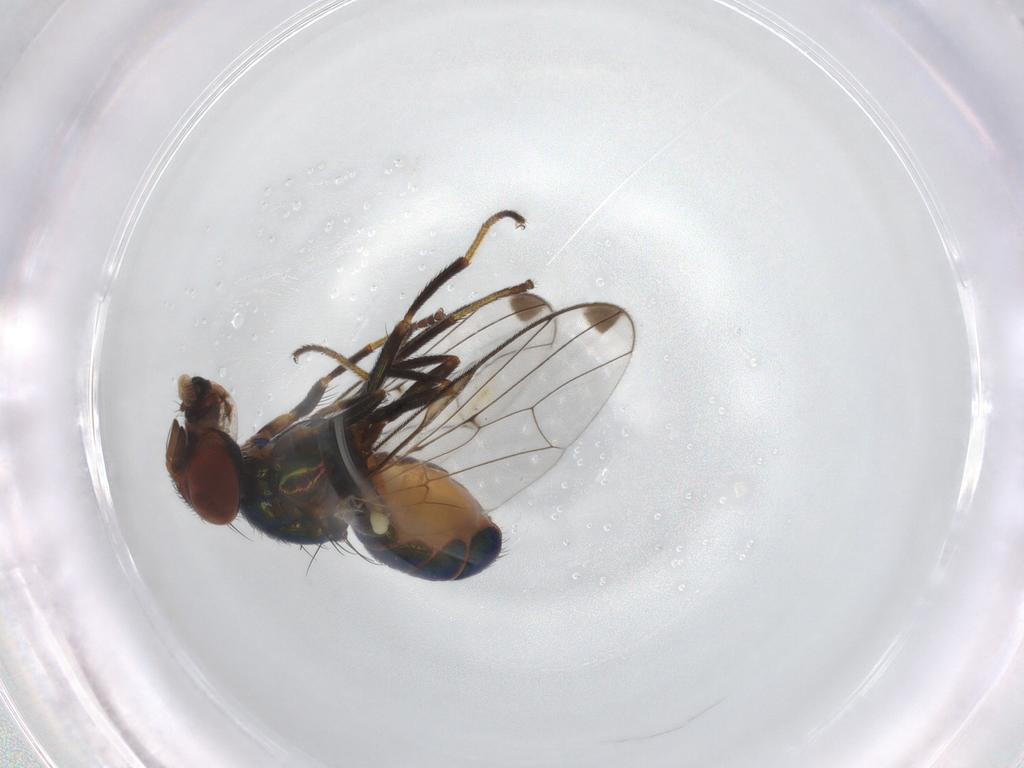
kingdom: Animalia
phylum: Arthropoda
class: Insecta
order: Diptera
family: Platystomatidae
